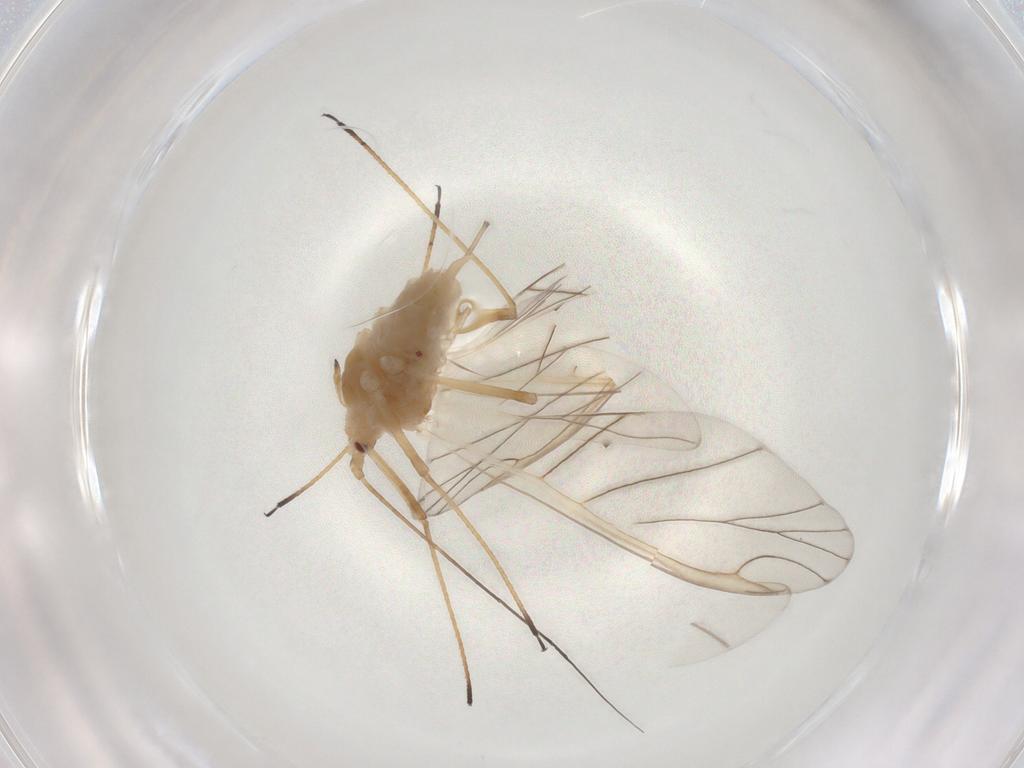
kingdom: Animalia
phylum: Arthropoda
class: Insecta
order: Hemiptera
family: Aphididae
